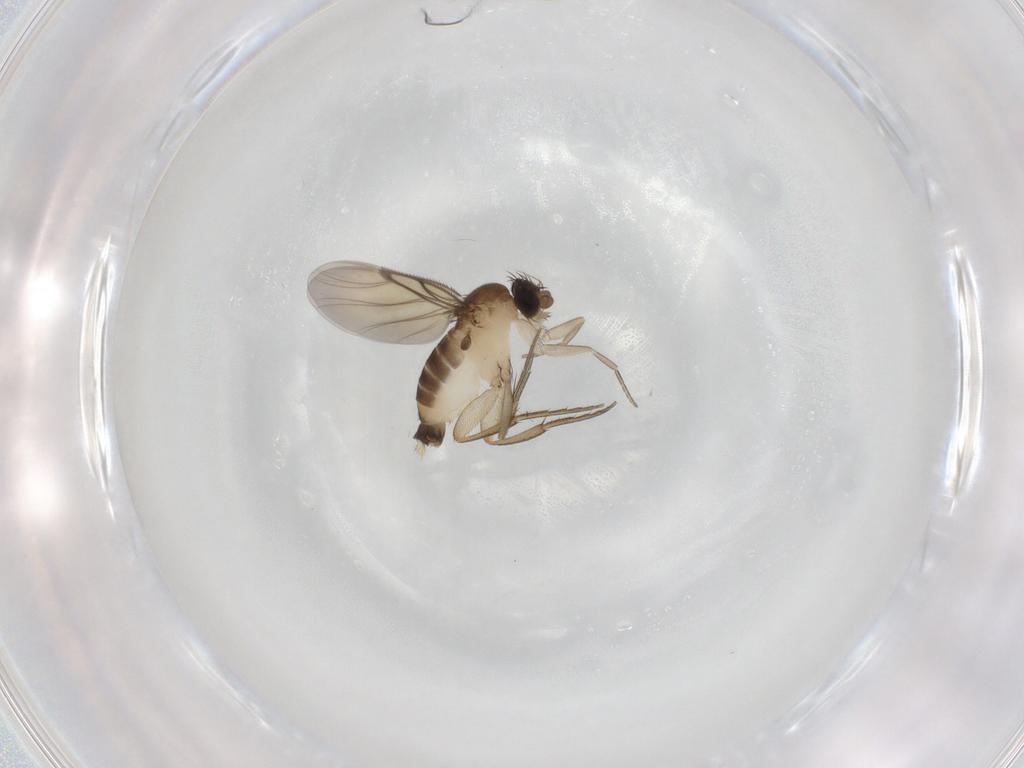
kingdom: Animalia
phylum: Arthropoda
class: Insecta
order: Diptera
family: Limoniidae
